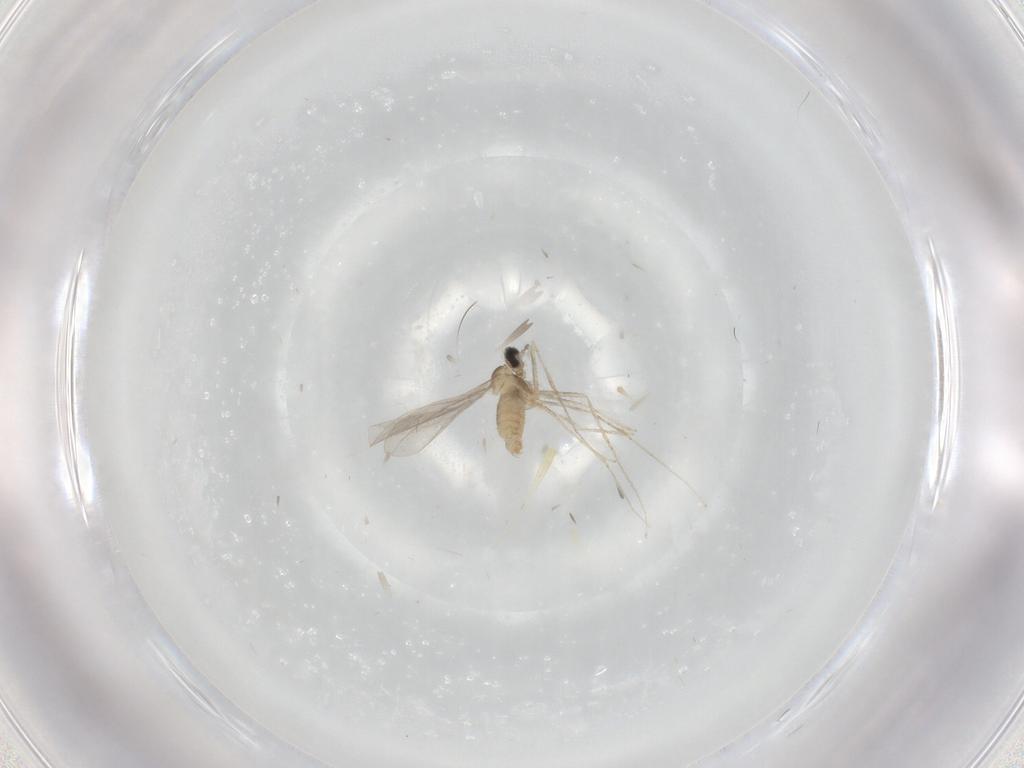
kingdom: Animalia
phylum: Arthropoda
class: Insecta
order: Diptera
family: Cecidomyiidae
